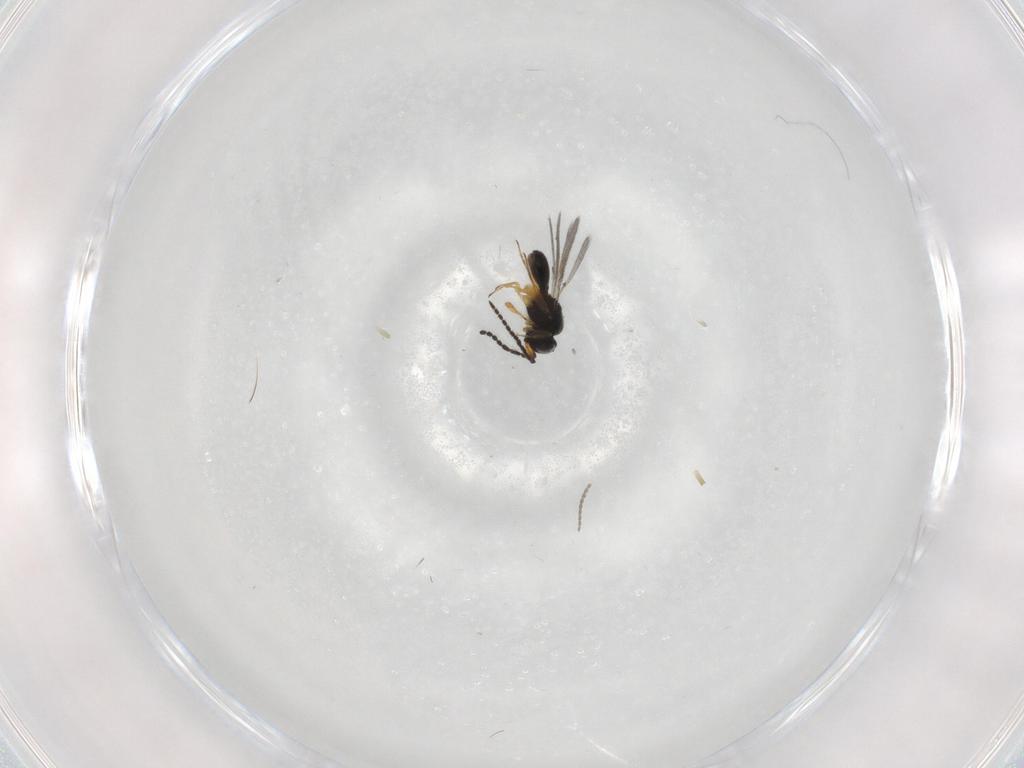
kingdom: Animalia
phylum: Arthropoda
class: Insecta
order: Hymenoptera
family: Scelionidae
